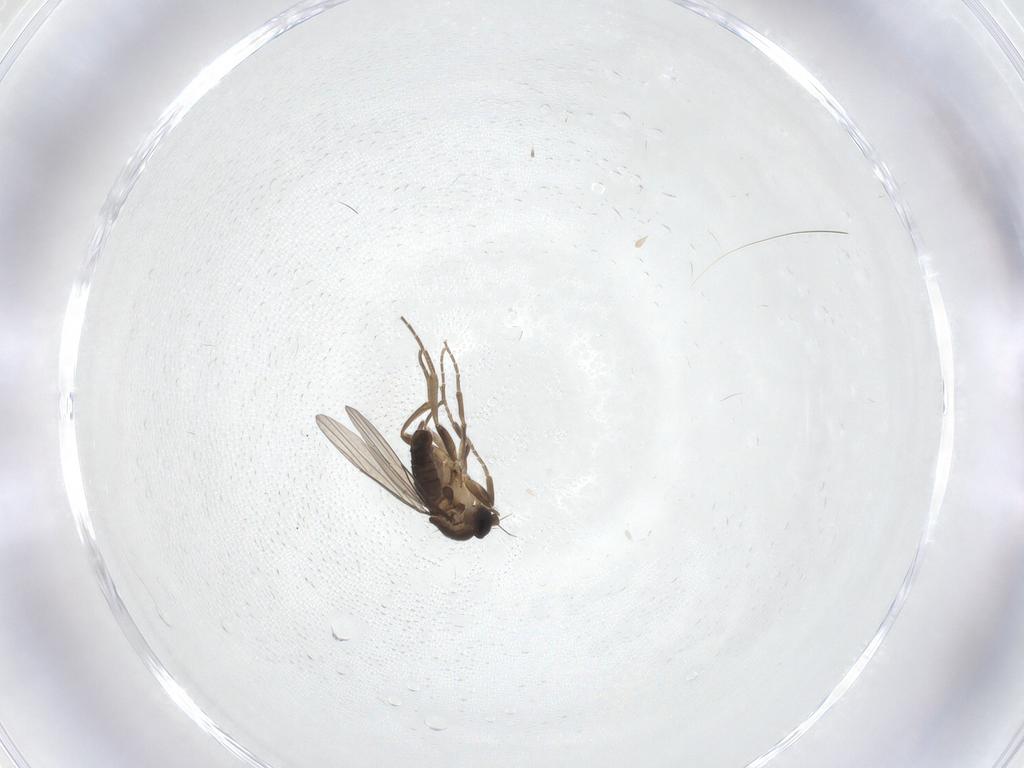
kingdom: Animalia
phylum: Arthropoda
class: Insecta
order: Diptera
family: Phoridae
